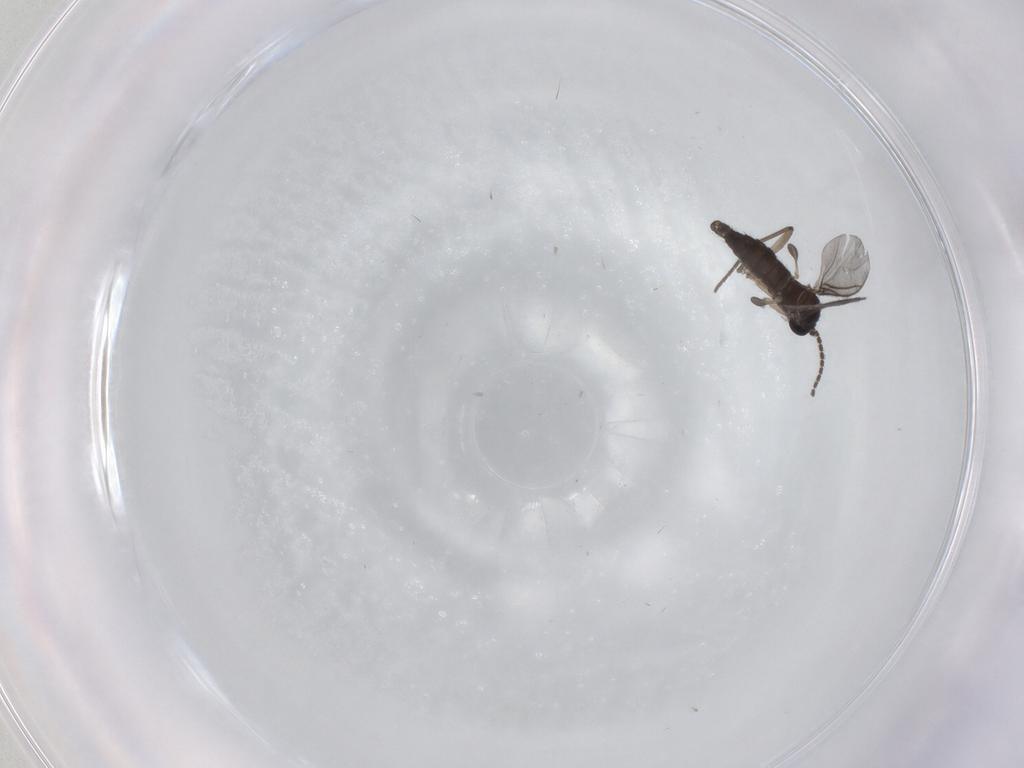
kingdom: Animalia
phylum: Arthropoda
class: Insecta
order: Diptera
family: Sciaridae
